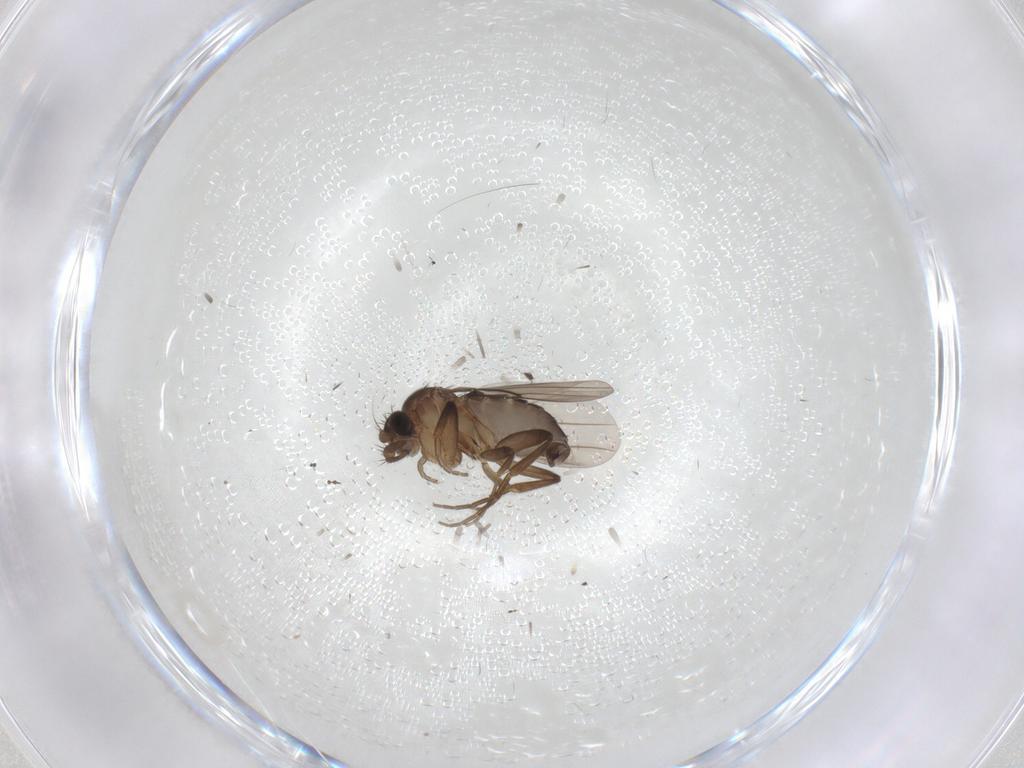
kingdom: Animalia
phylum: Arthropoda
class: Insecta
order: Diptera
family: Phoridae
